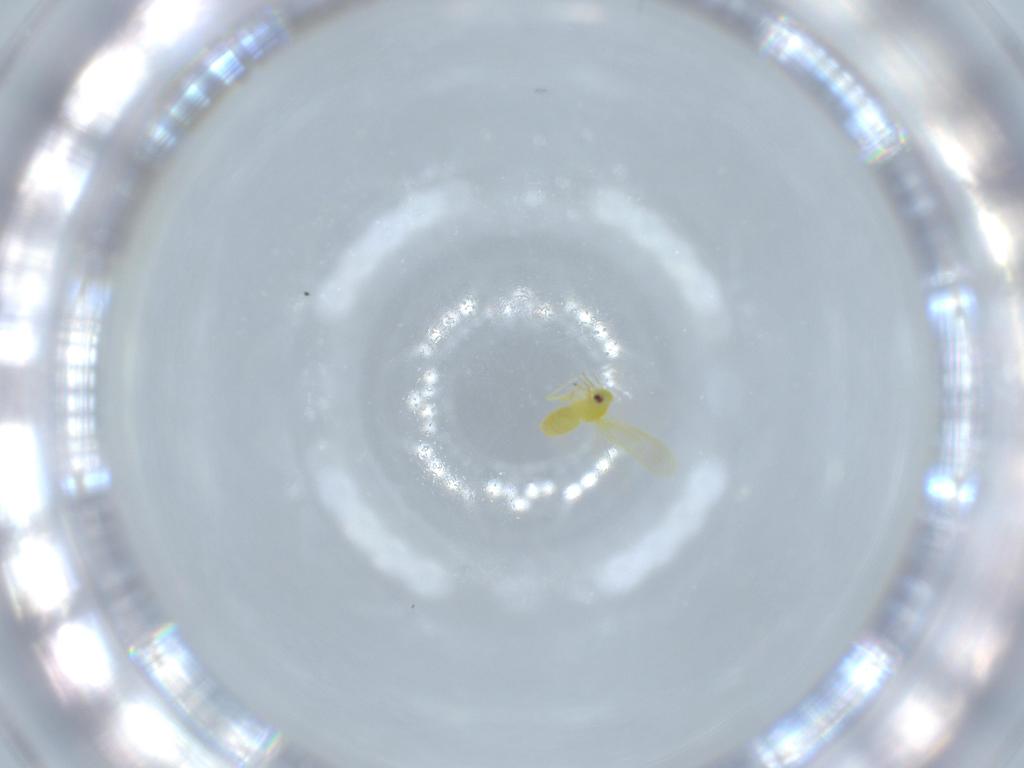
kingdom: Animalia
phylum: Arthropoda
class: Insecta
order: Hemiptera
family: Aleyrodidae
